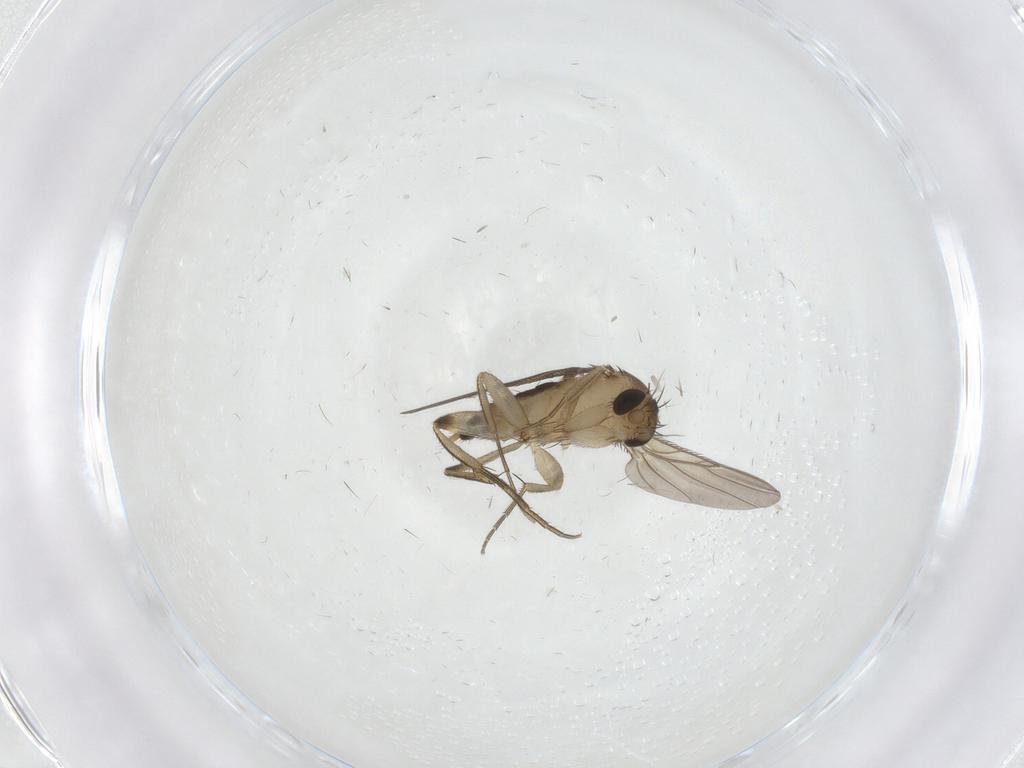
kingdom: Animalia
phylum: Arthropoda
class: Insecta
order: Diptera
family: Phoridae
